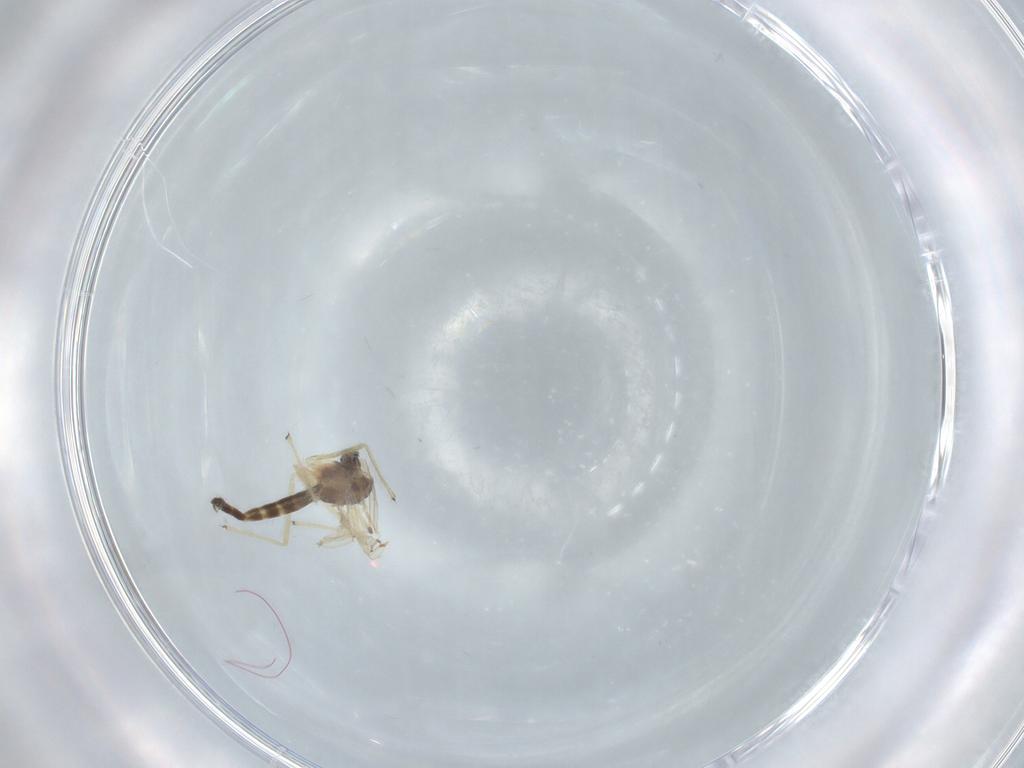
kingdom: Animalia
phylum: Arthropoda
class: Insecta
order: Diptera
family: Chironomidae
